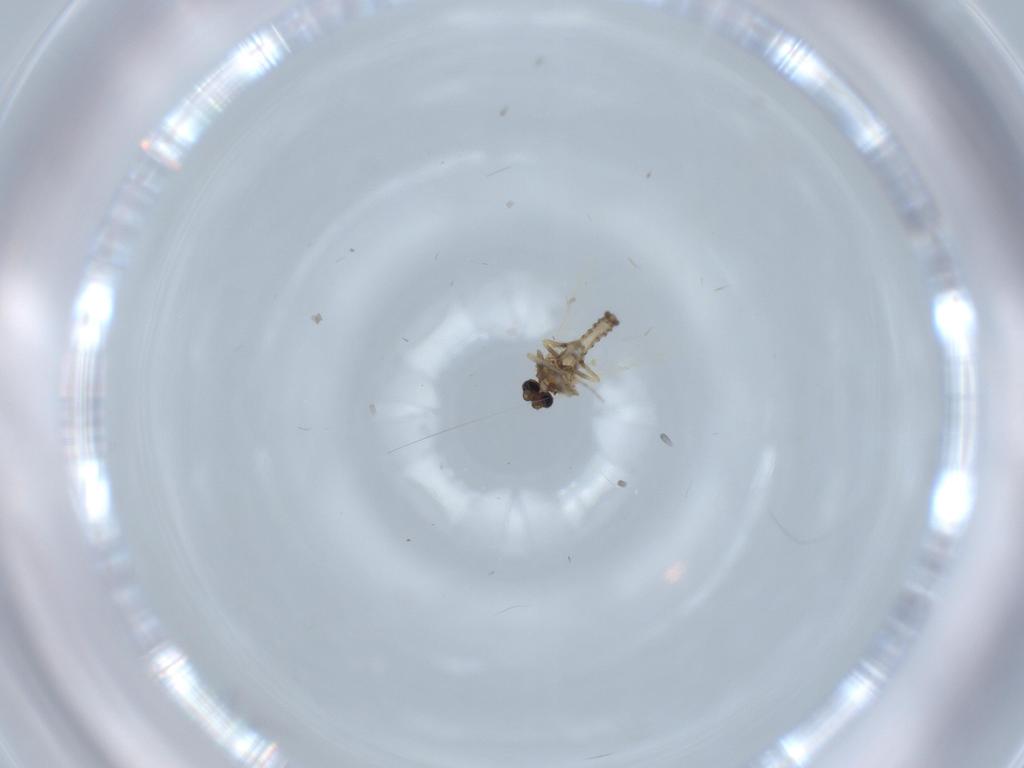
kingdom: Animalia
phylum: Arthropoda
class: Insecta
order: Diptera
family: Ceratopogonidae
